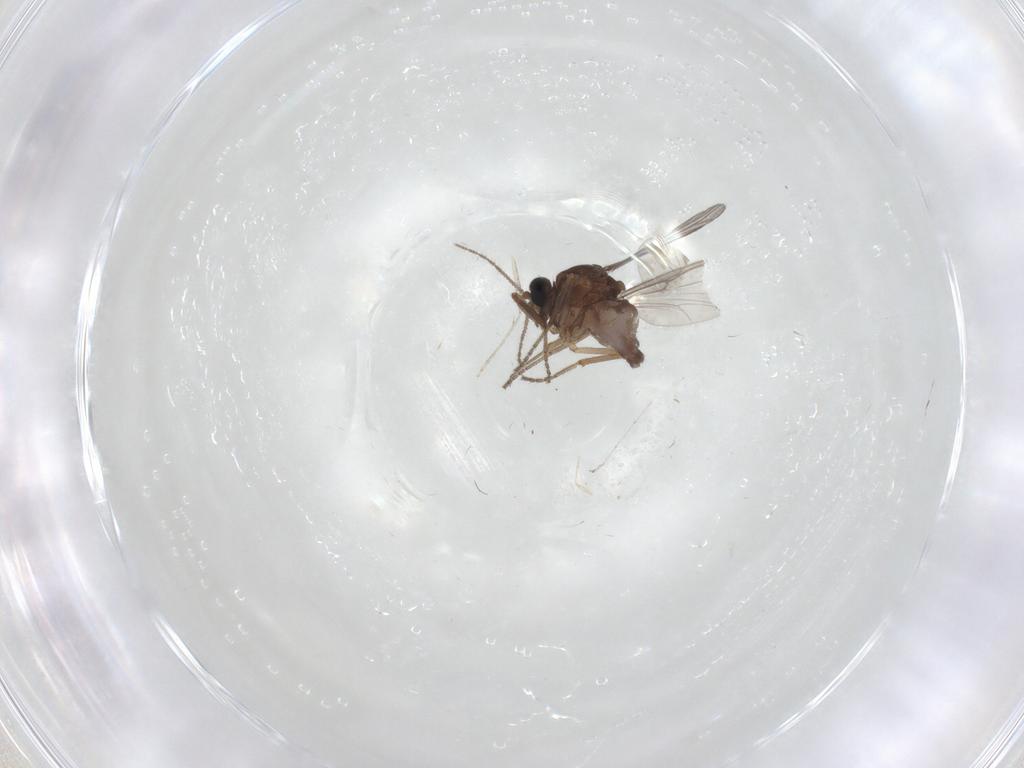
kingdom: Animalia
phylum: Arthropoda
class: Insecta
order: Diptera
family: Ceratopogonidae
